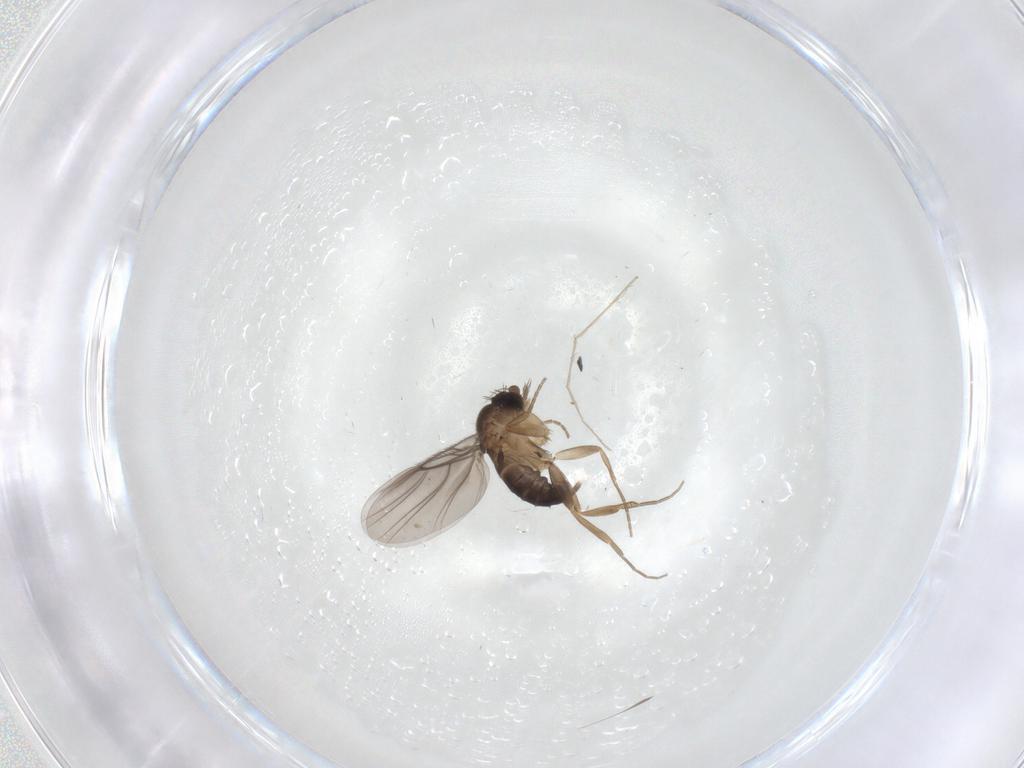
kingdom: Animalia
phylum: Arthropoda
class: Insecta
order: Diptera
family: Chironomidae
